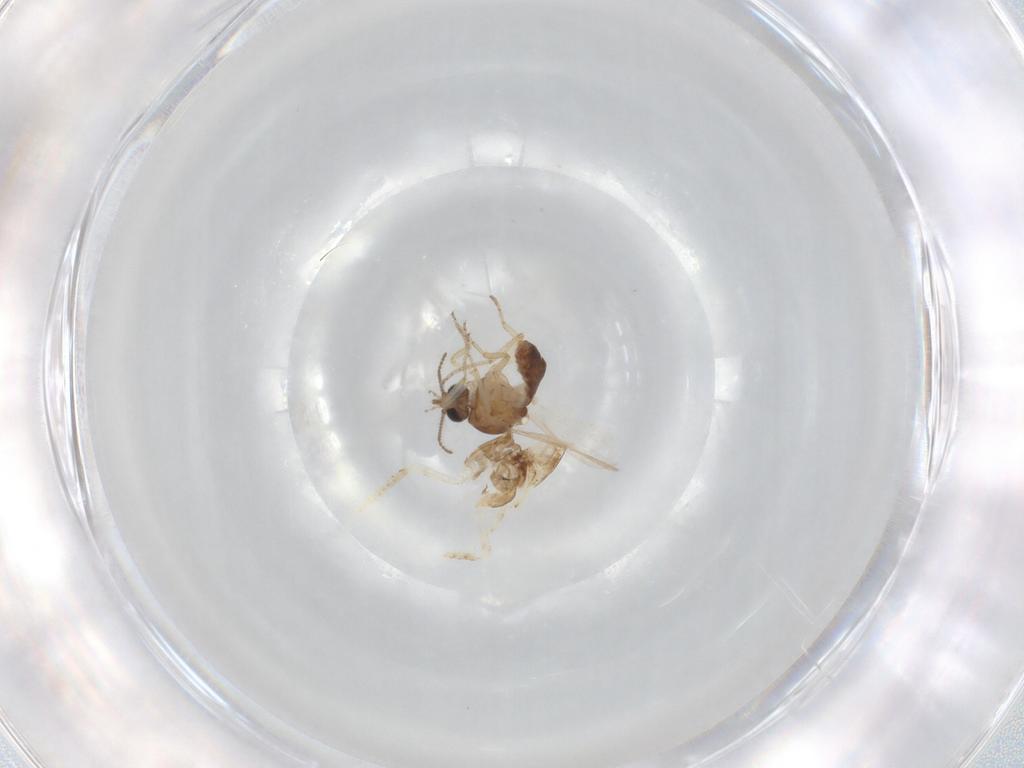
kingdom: Animalia
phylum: Arthropoda
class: Insecta
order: Diptera
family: Ceratopogonidae
